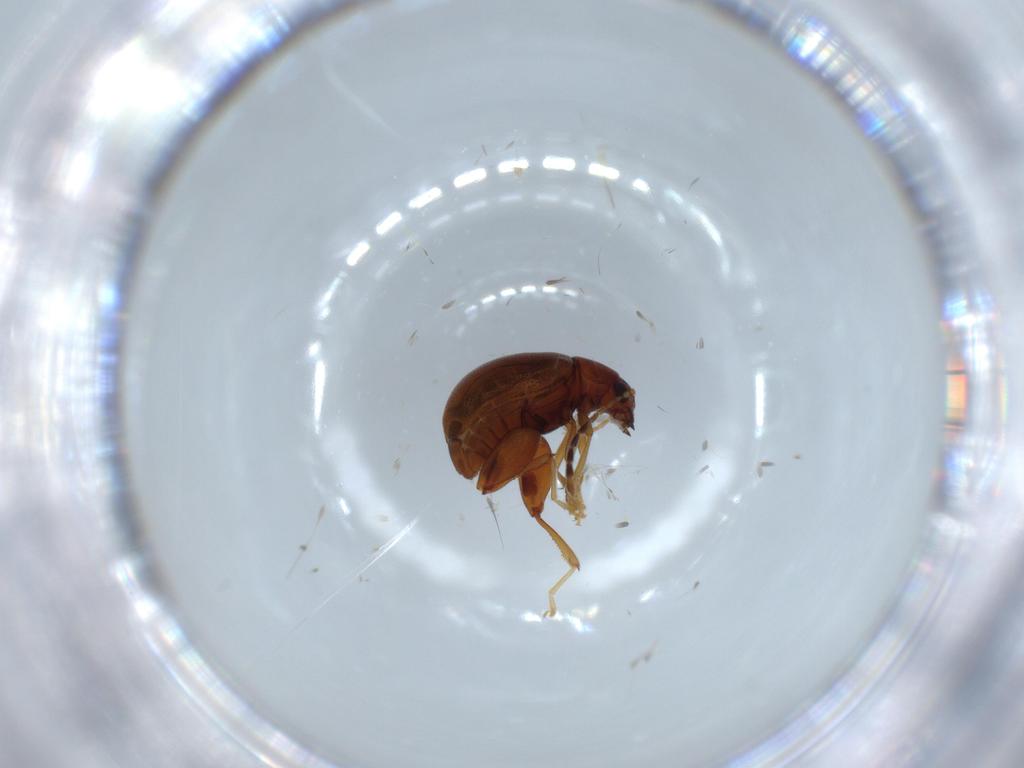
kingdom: Animalia
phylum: Arthropoda
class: Insecta
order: Coleoptera
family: Chrysomelidae
